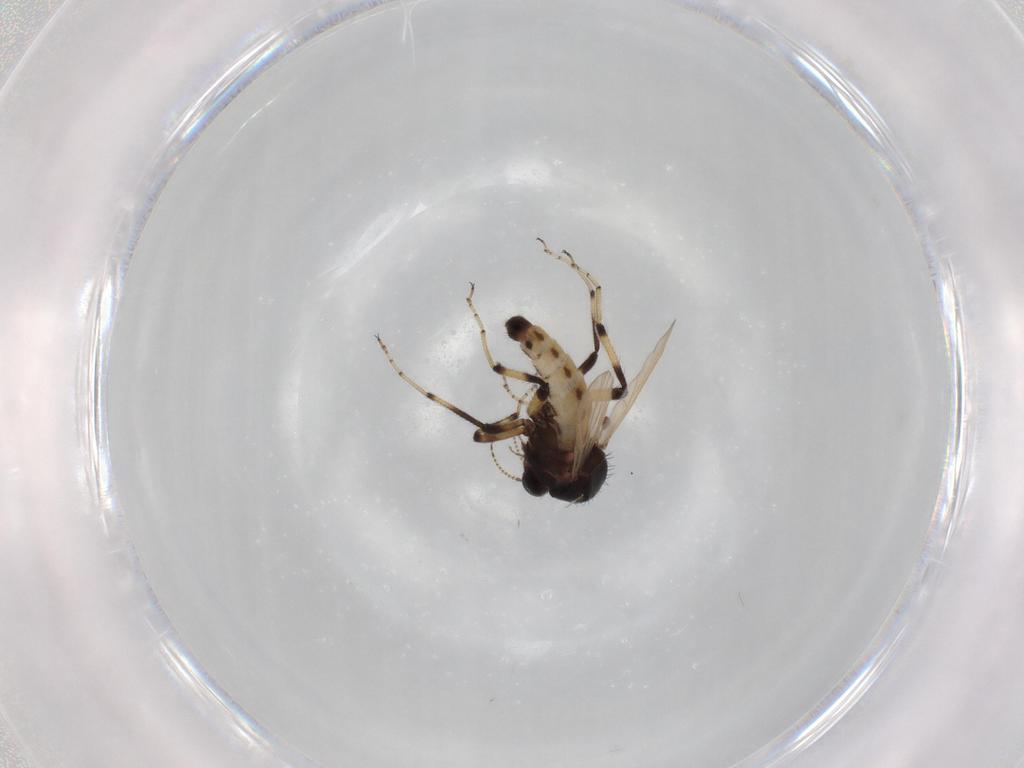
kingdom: Animalia
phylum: Arthropoda
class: Insecta
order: Diptera
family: Ceratopogonidae
